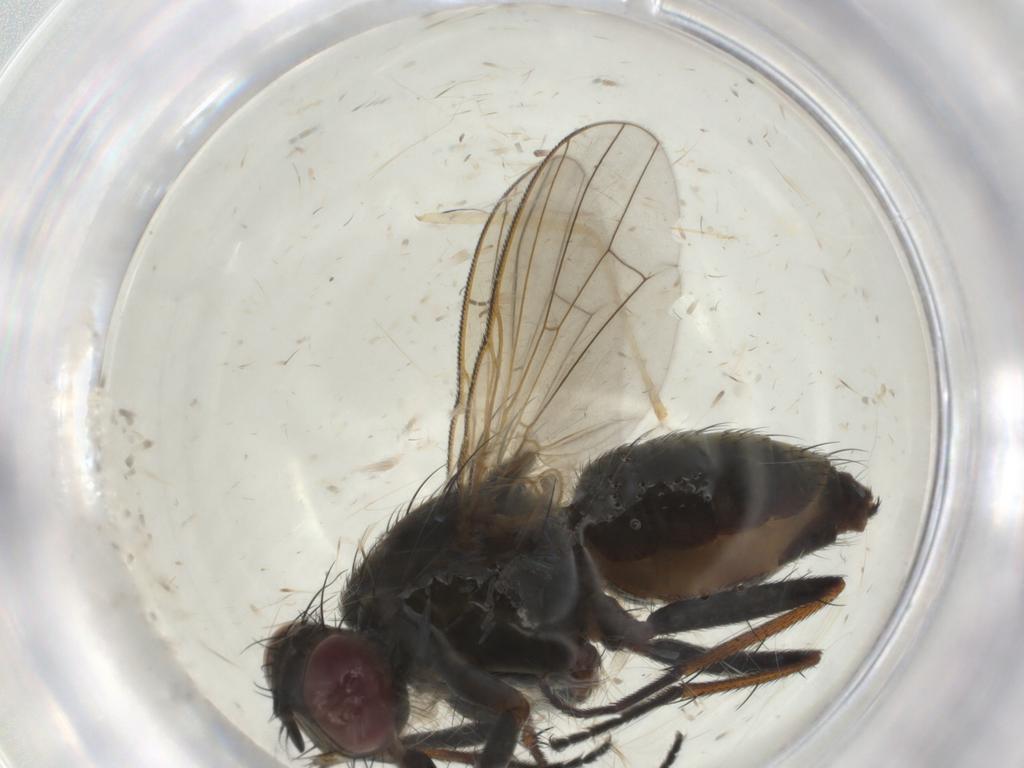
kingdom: Animalia
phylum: Arthropoda
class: Insecta
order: Diptera
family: Muscidae
